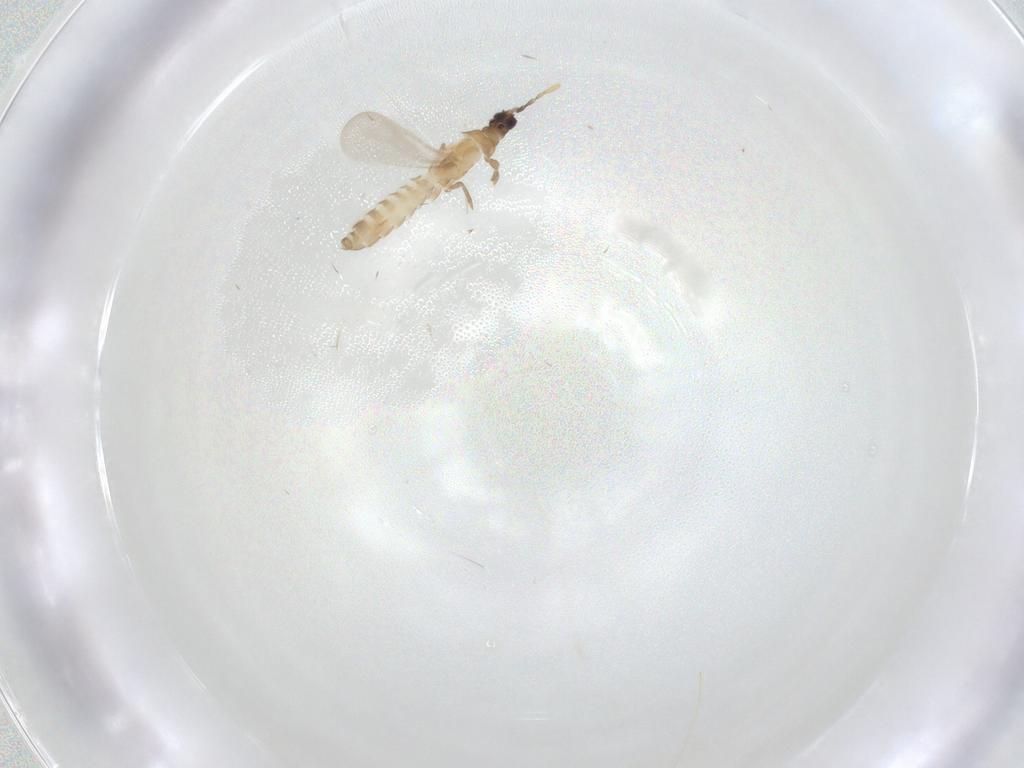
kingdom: Animalia
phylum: Arthropoda
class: Insecta
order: Hemiptera
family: Enicocephalidae
